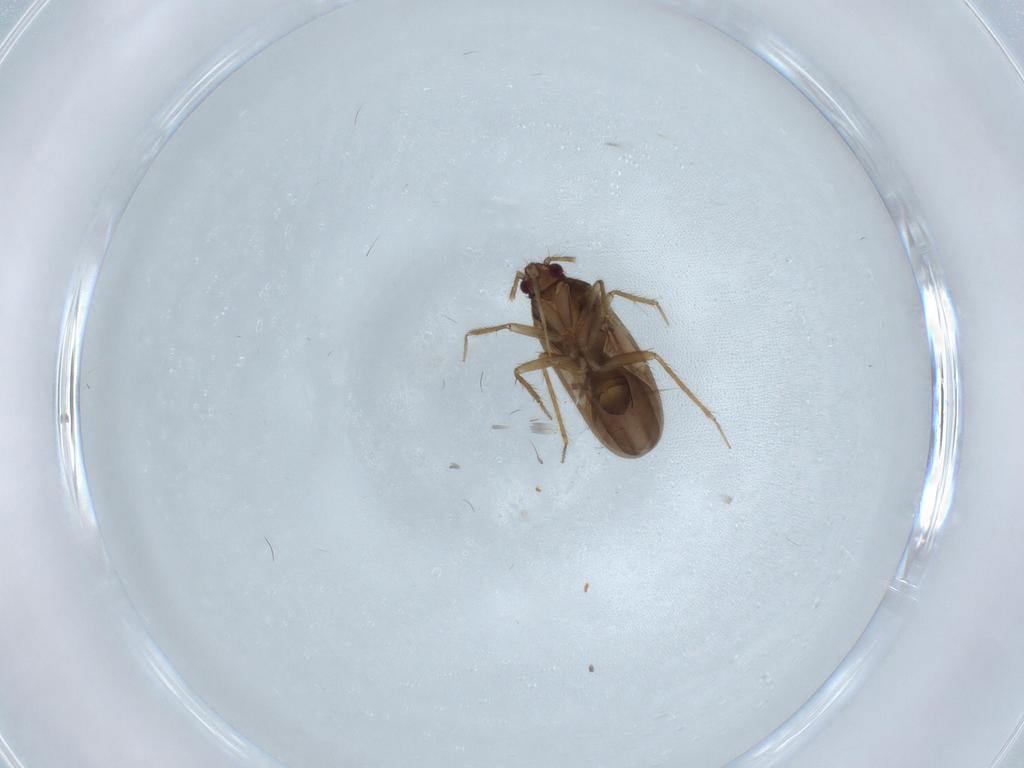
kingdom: Animalia
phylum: Arthropoda
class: Insecta
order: Hemiptera
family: Ceratocombidae
